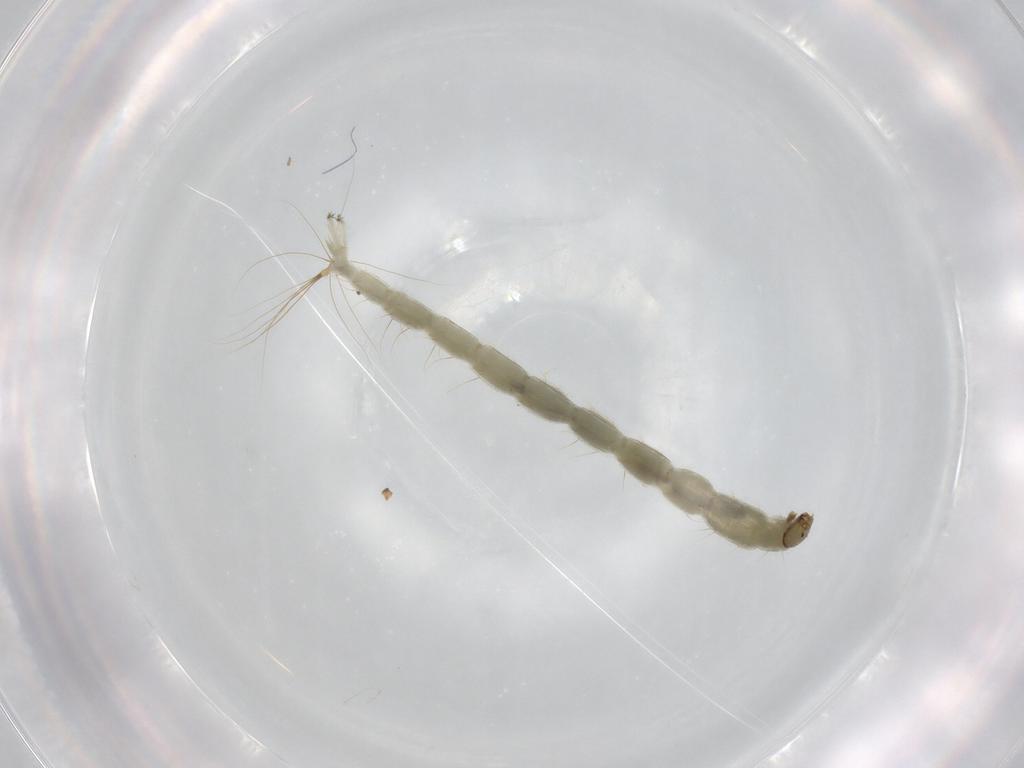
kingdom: Animalia
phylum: Arthropoda
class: Insecta
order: Diptera
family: Chironomidae
